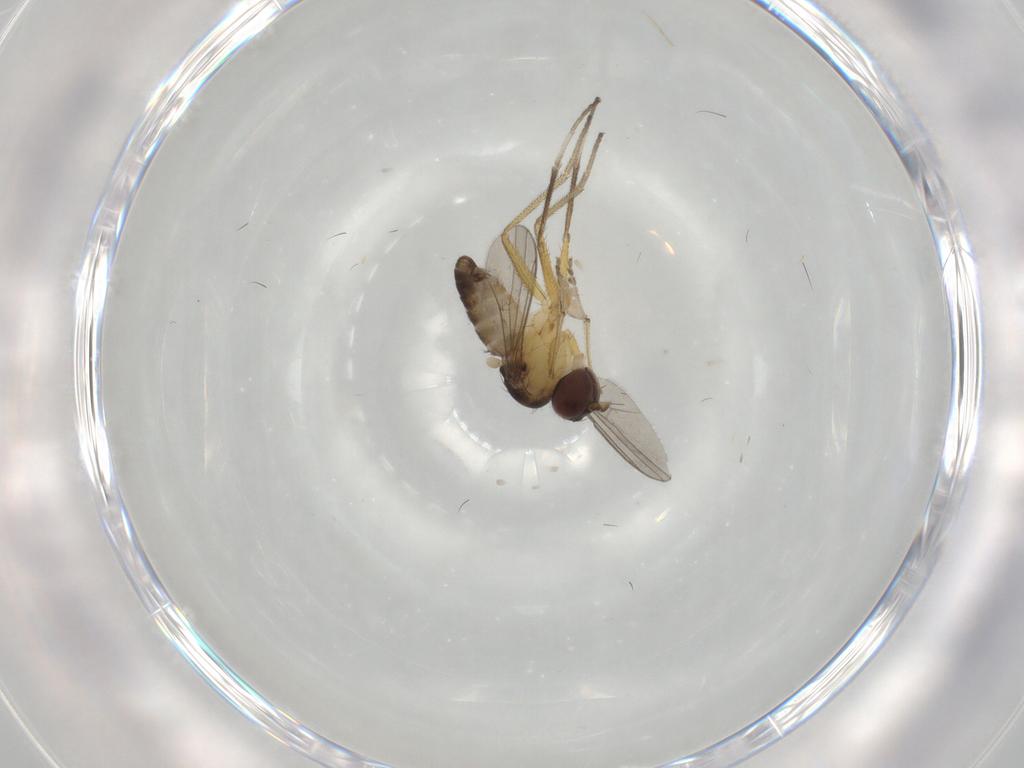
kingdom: Animalia
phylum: Arthropoda
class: Insecta
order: Diptera
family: Dolichopodidae
